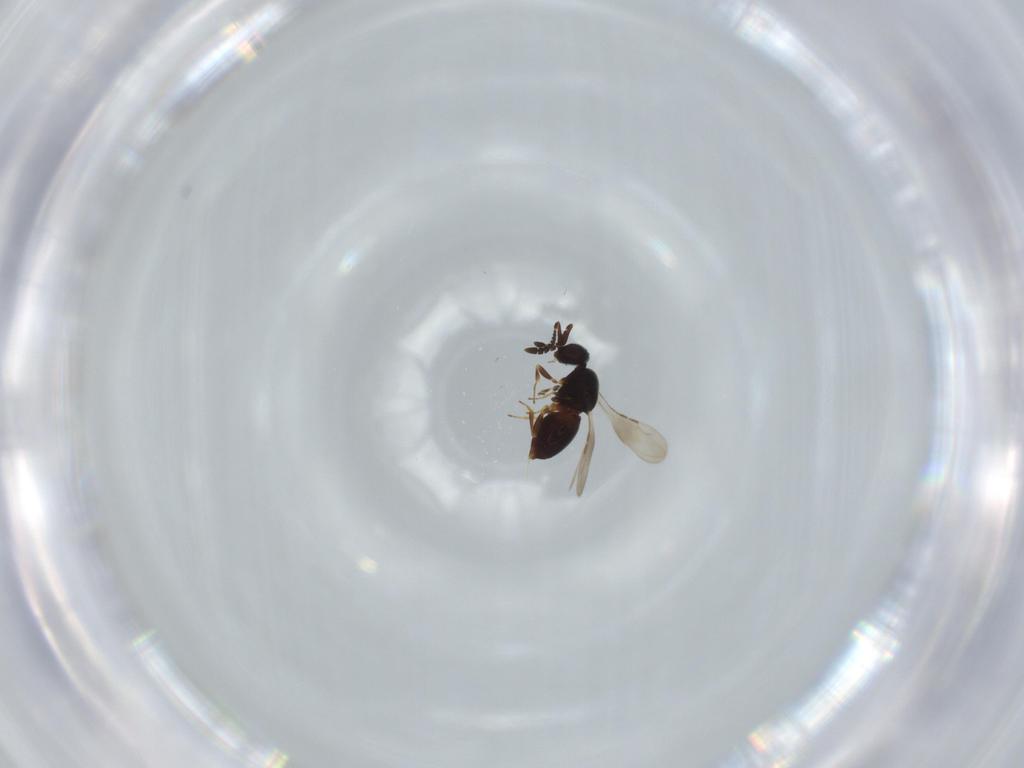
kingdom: Animalia
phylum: Arthropoda
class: Insecta
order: Hymenoptera
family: Ceraphronidae
